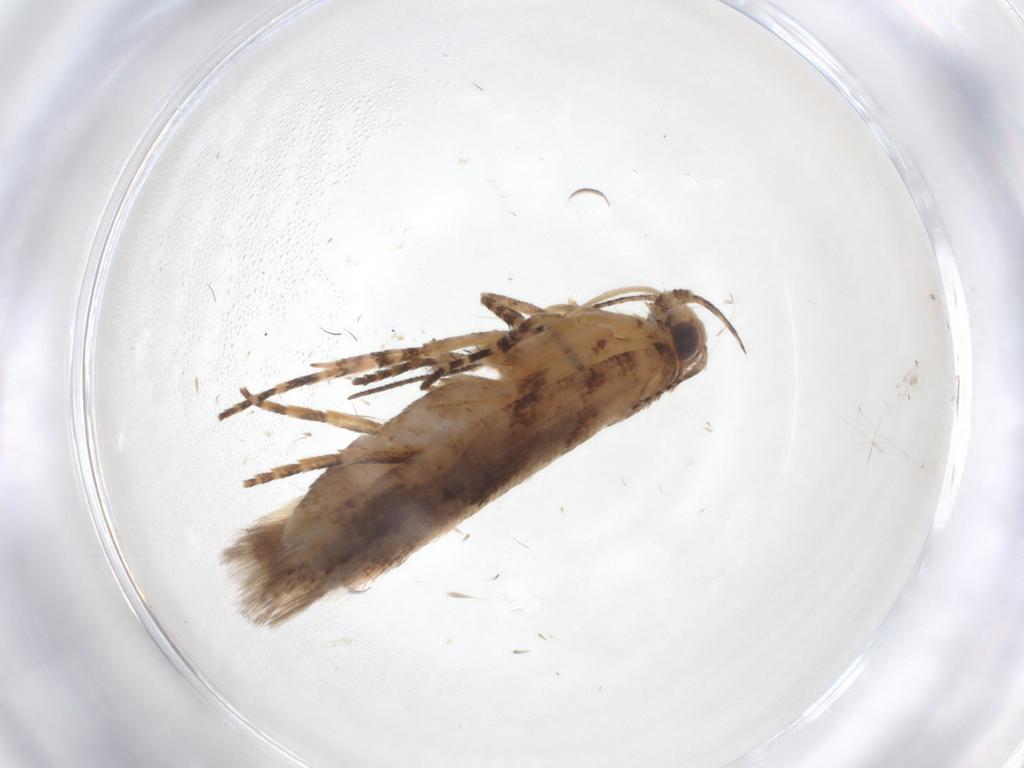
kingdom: Animalia
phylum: Arthropoda
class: Insecta
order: Lepidoptera
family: Gelechiidae
